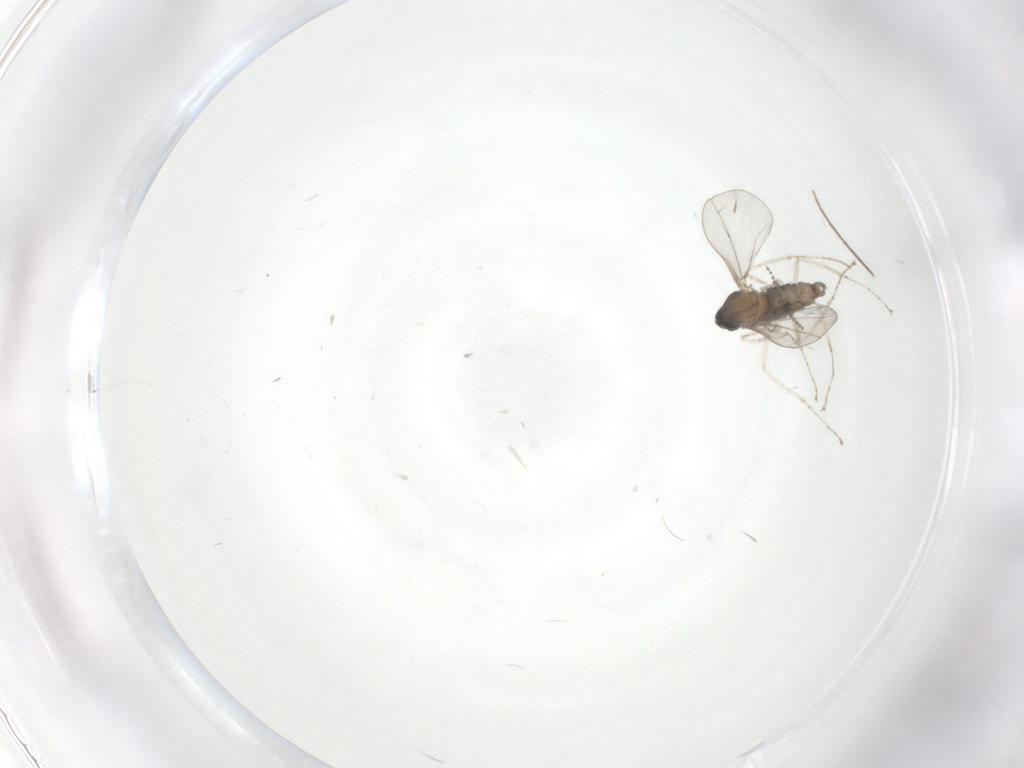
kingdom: Animalia
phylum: Arthropoda
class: Insecta
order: Diptera
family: Cecidomyiidae
